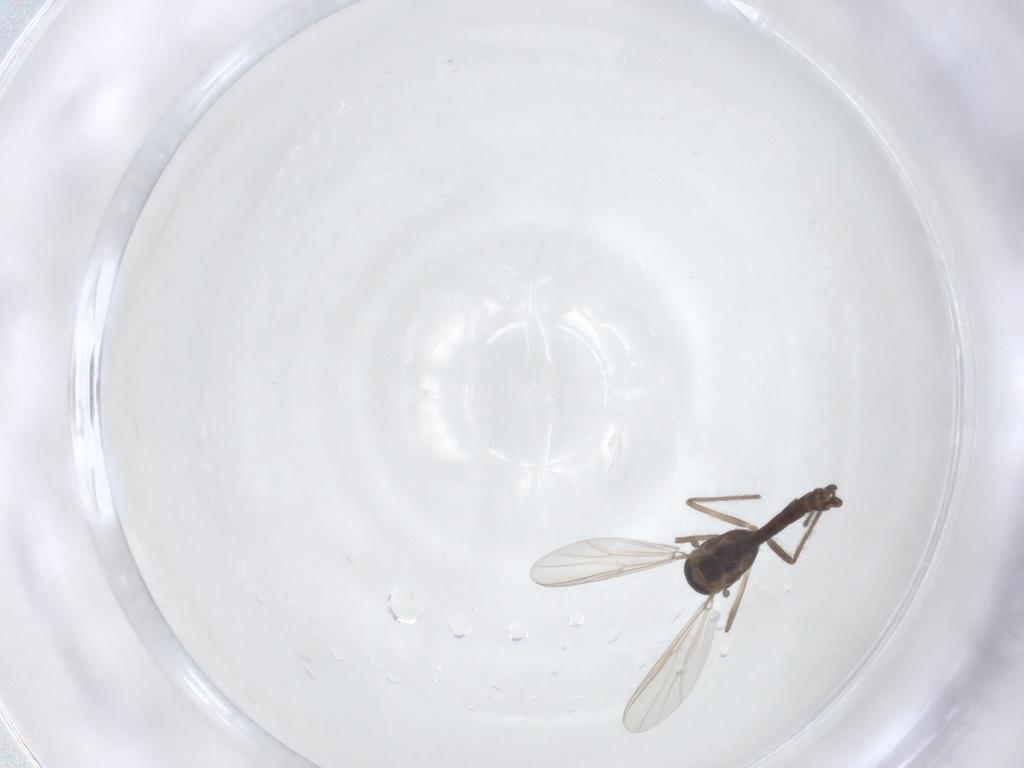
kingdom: Animalia
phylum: Arthropoda
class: Insecta
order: Diptera
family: Chironomidae
